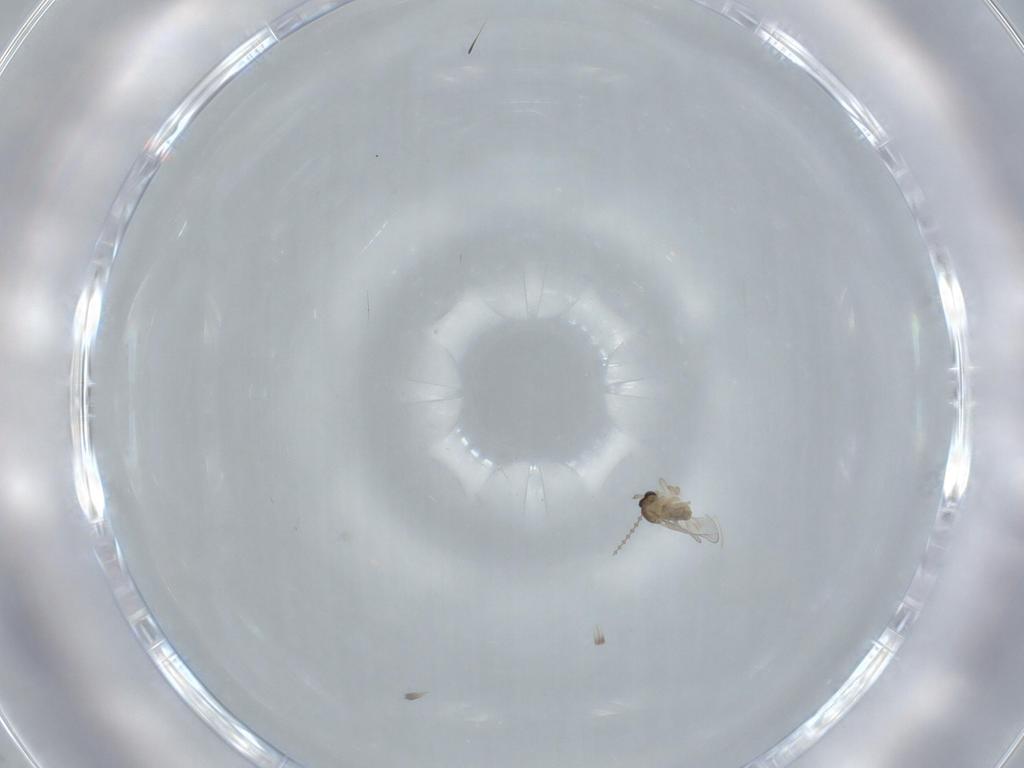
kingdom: Animalia
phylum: Arthropoda
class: Insecta
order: Diptera
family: Cecidomyiidae
